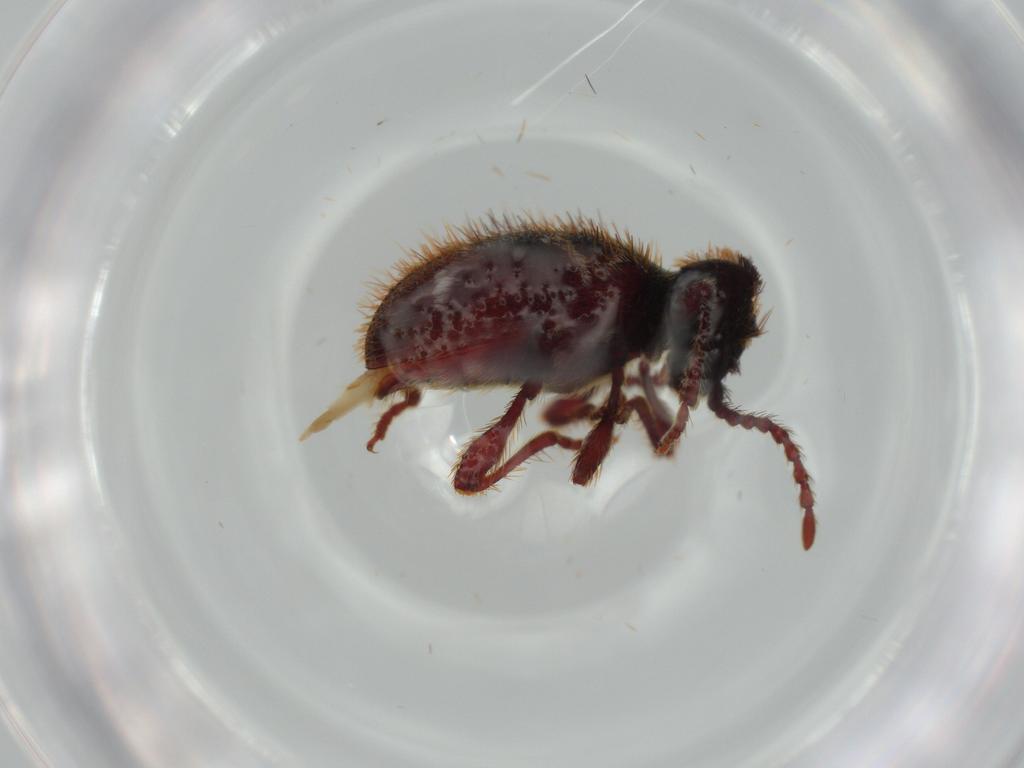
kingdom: Animalia
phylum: Arthropoda
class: Insecta
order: Coleoptera
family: Ptinidae
